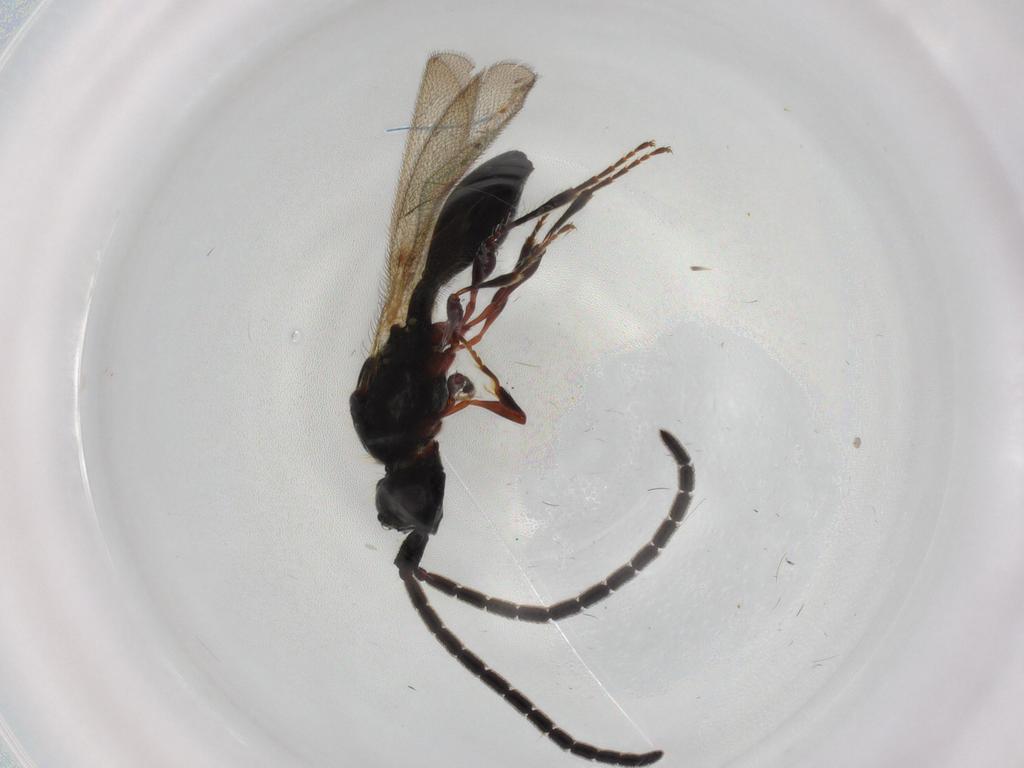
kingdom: Animalia
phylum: Arthropoda
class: Insecta
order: Hymenoptera
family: Diapriidae
